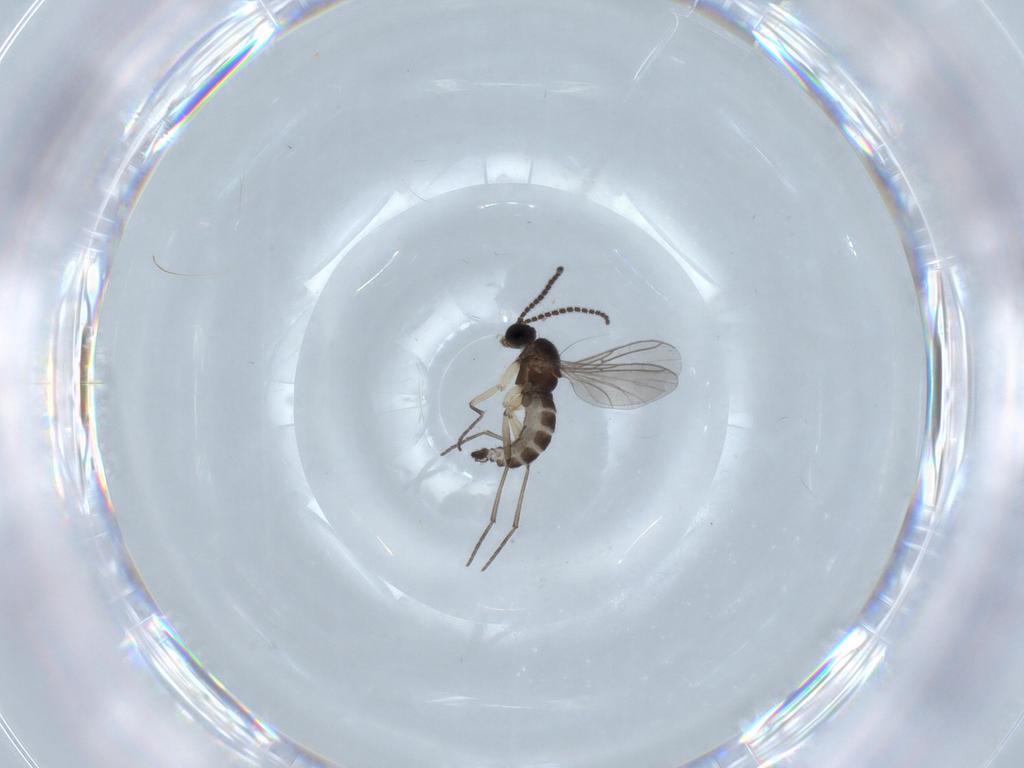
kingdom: Animalia
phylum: Arthropoda
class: Insecta
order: Diptera
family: Sciaridae
